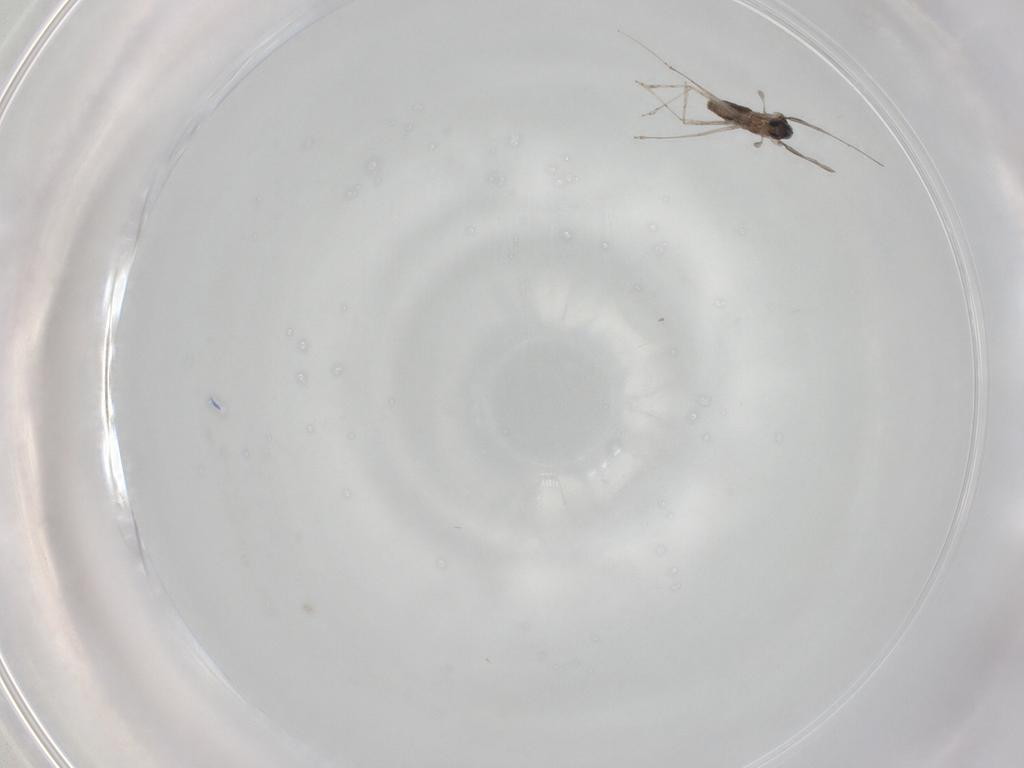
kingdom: Animalia
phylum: Arthropoda
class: Insecta
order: Diptera
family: Cecidomyiidae
